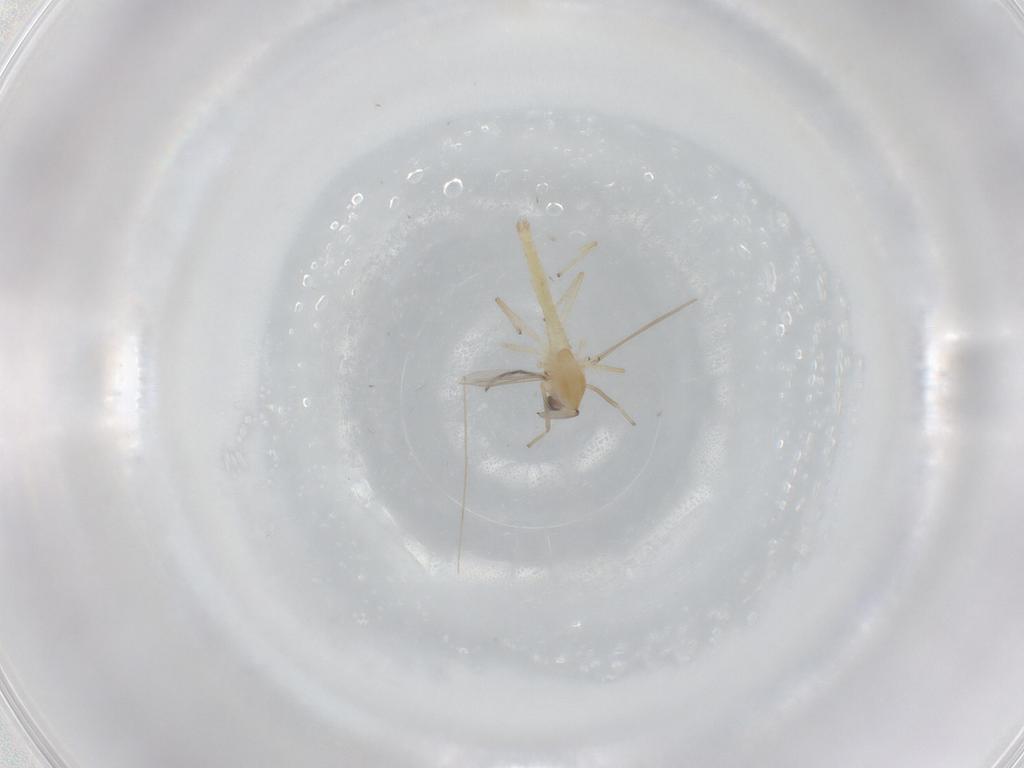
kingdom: Animalia
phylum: Arthropoda
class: Insecta
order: Diptera
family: Chironomidae
